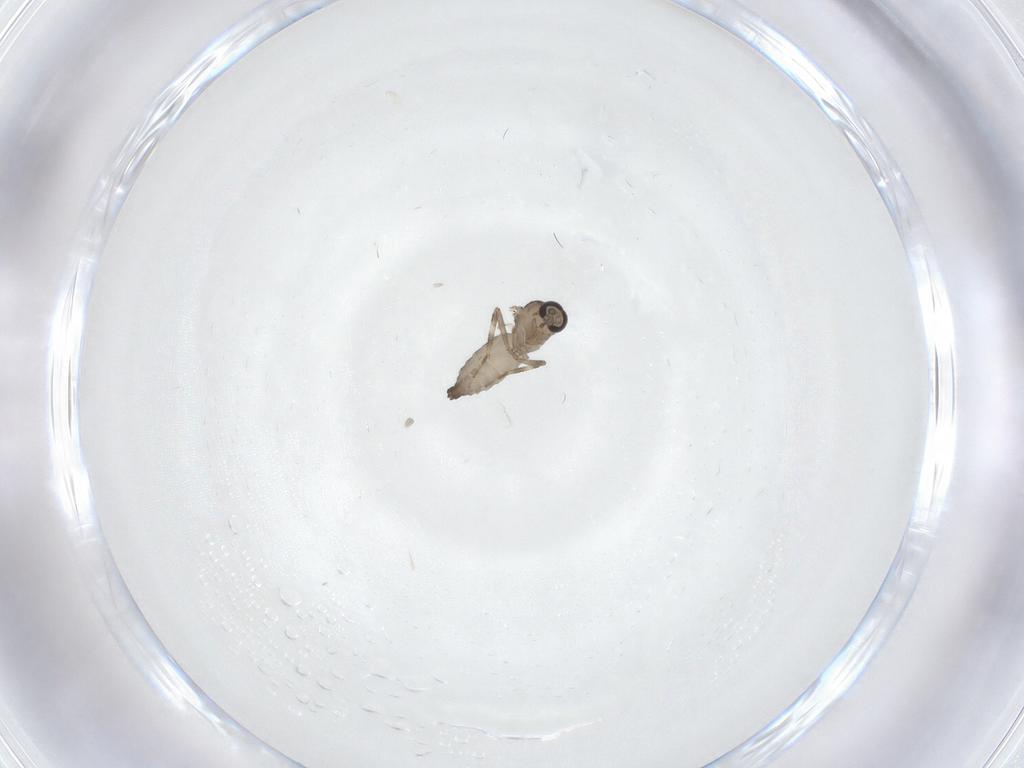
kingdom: Animalia
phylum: Arthropoda
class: Insecta
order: Diptera
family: Ceratopogonidae
